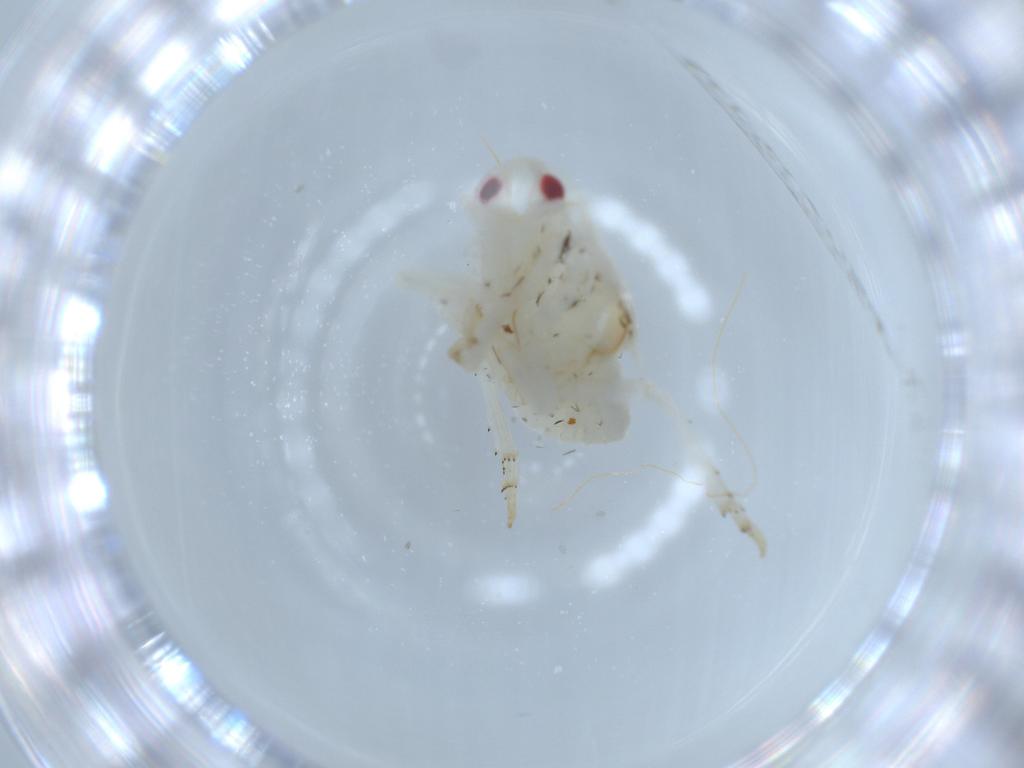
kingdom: Animalia
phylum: Arthropoda
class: Insecta
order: Hemiptera
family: Flatidae
